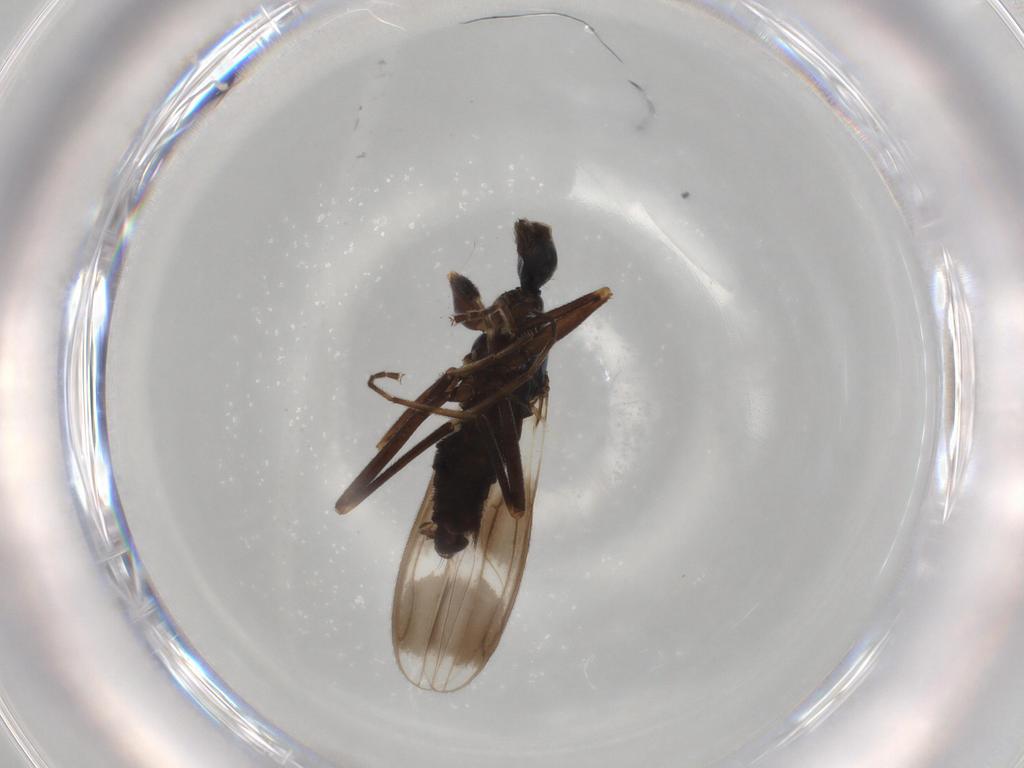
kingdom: Animalia
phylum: Arthropoda
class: Insecta
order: Diptera
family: Hybotidae
